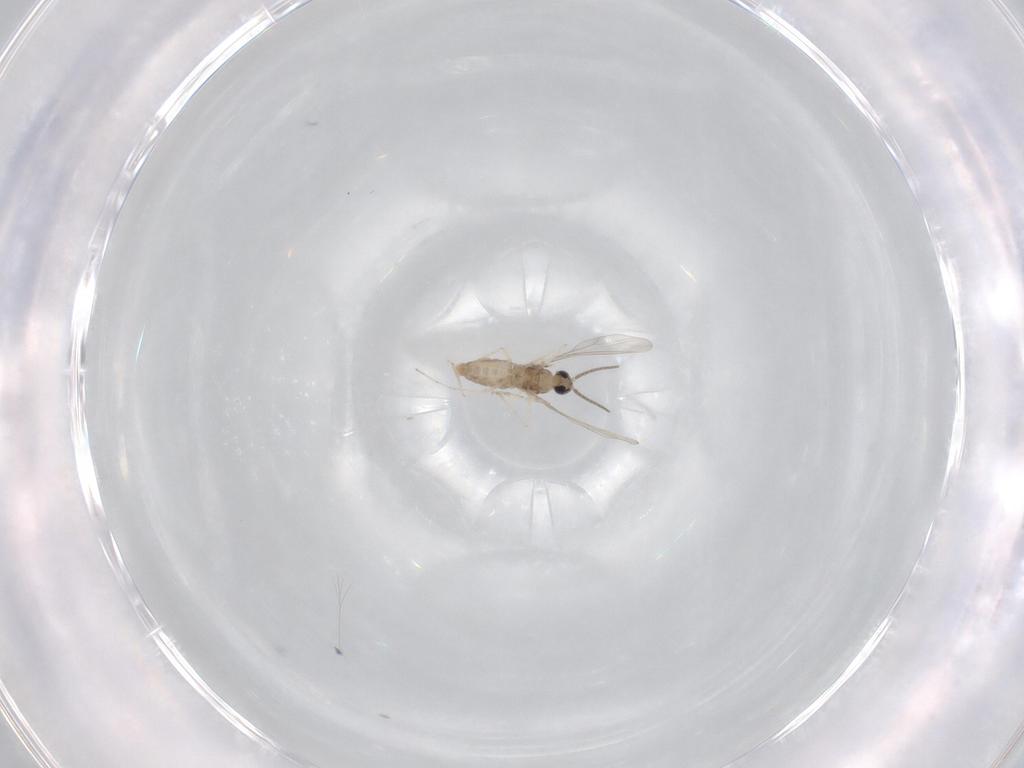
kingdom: Animalia
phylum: Arthropoda
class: Insecta
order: Diptera
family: Cecidomyiidae
